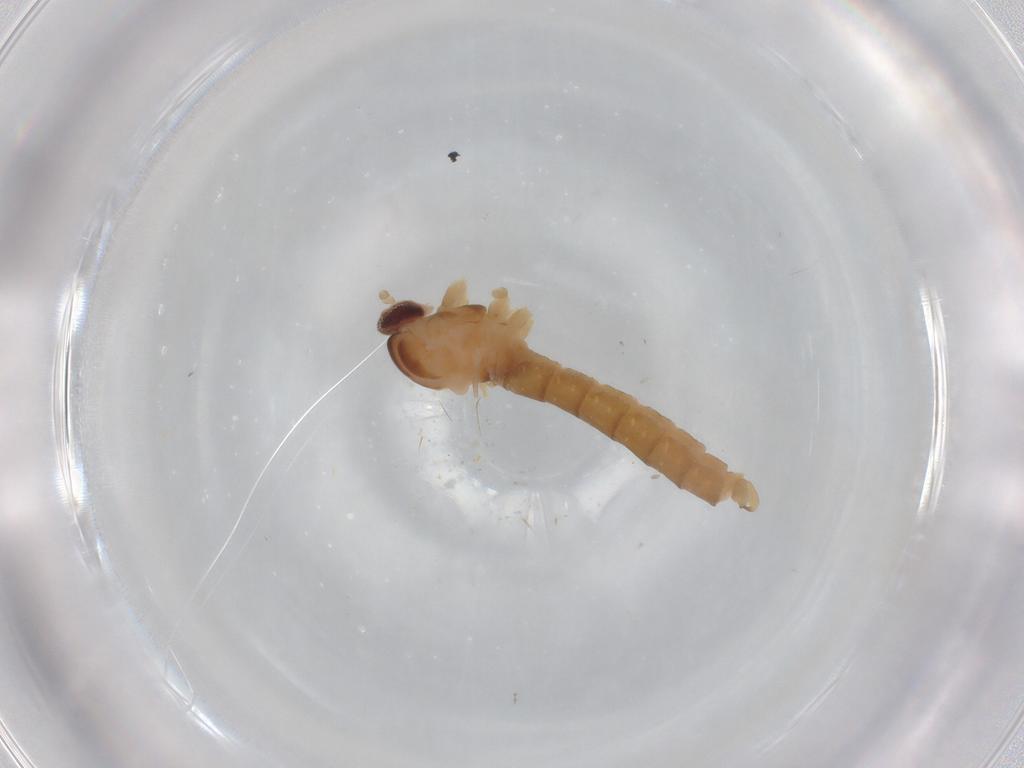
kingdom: Animalia
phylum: Arthropoda
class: Insecta
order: Diptera
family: Cecidomyiidae
